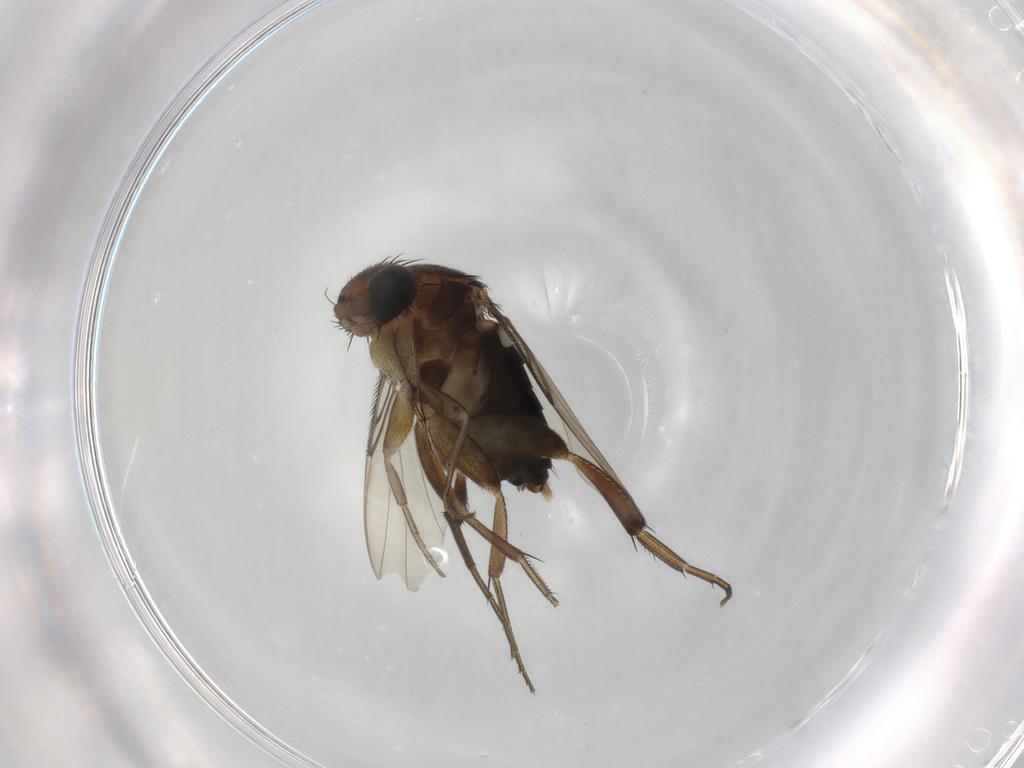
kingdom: Animalia
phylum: Arthropoda
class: Insecta
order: Diptera
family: Phoridae
